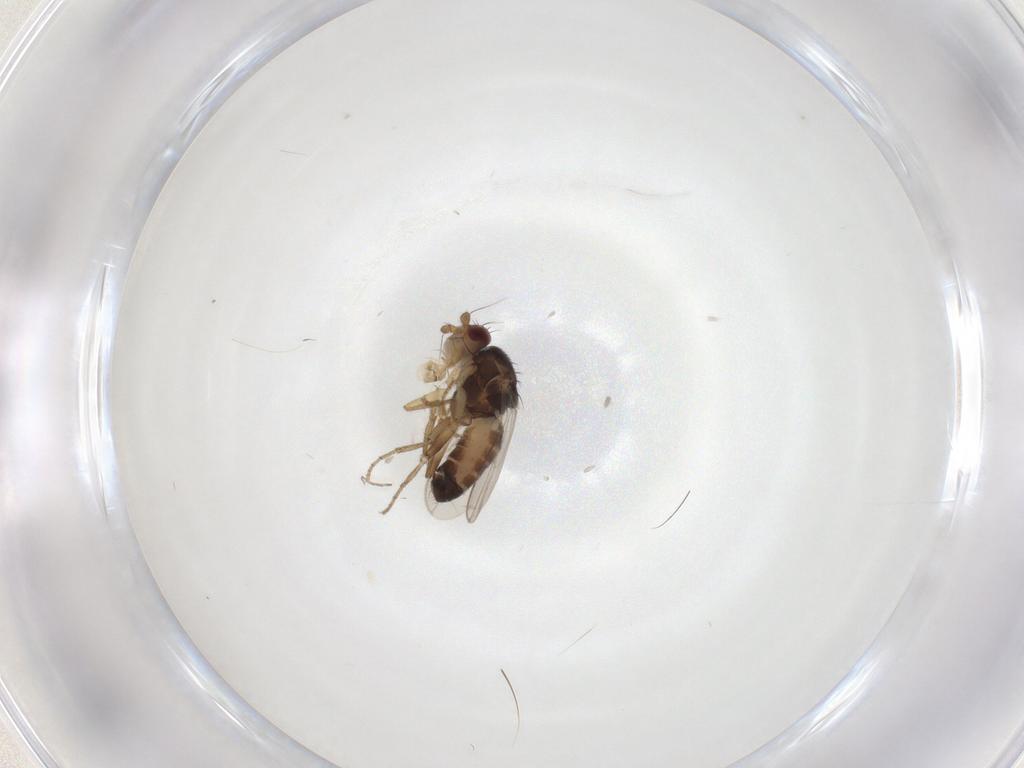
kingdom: Animalia
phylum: Arthropoda
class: Insecta
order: Diptera
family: Sphaeroceridae
